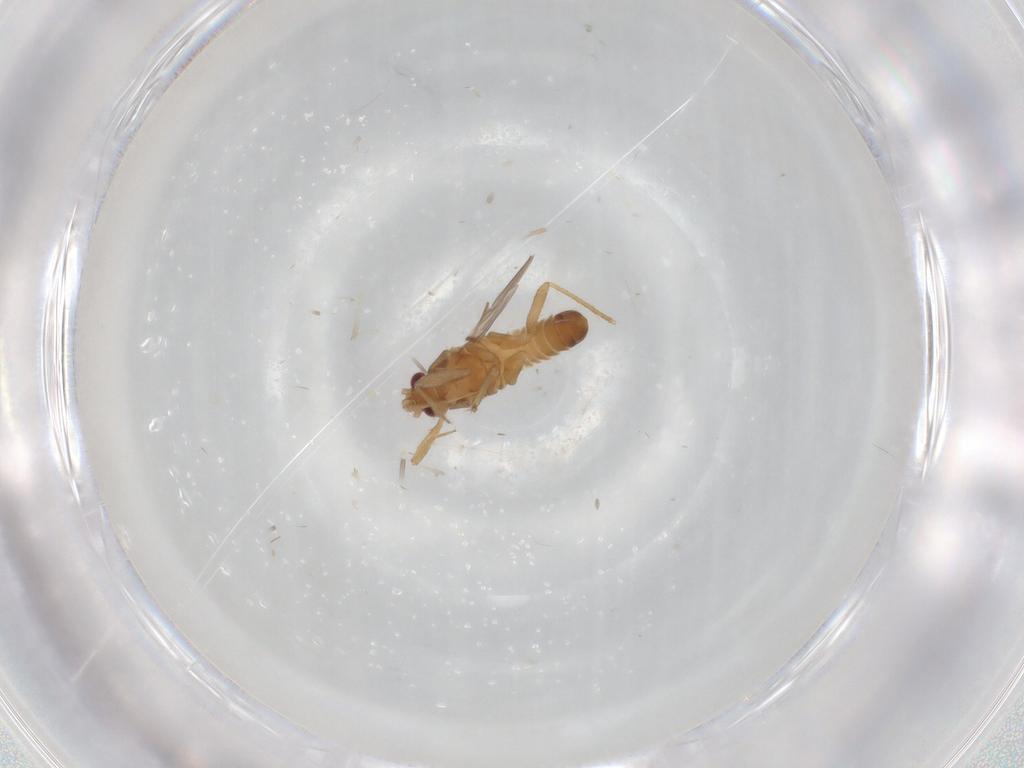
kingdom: Animalia
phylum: Arthropoda
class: Insecta
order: Hemiptera
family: Ceratocombidae
